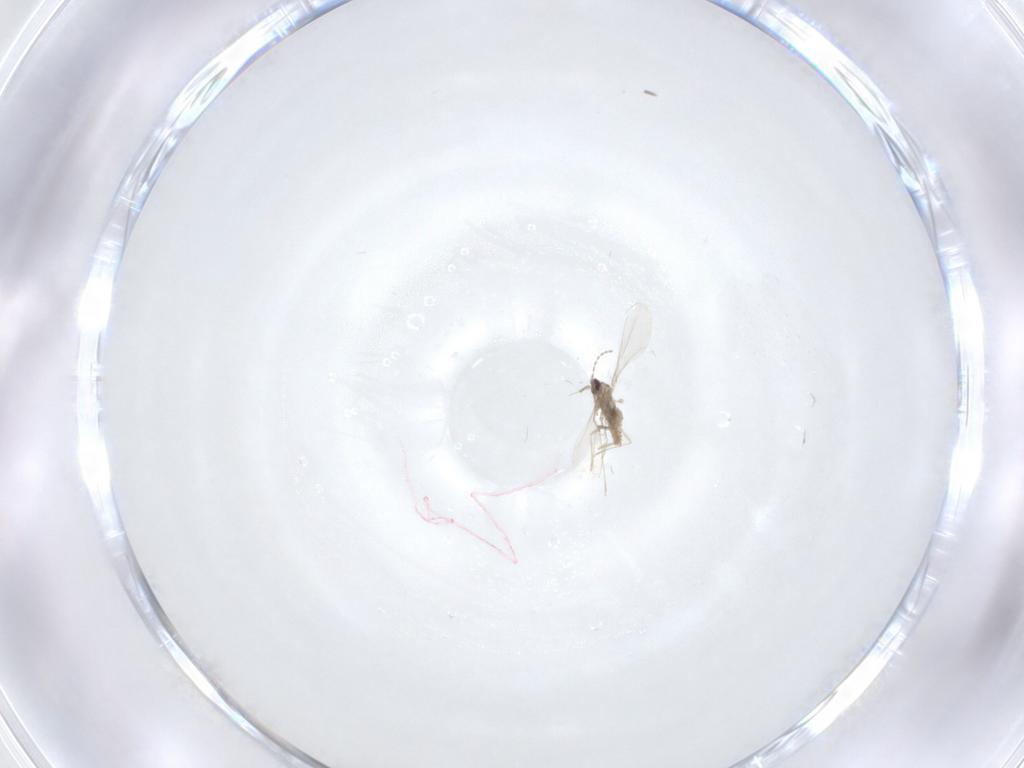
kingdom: Animalia
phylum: Arthropoda
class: Insecta
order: Diptera
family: Cecidomyiidae
